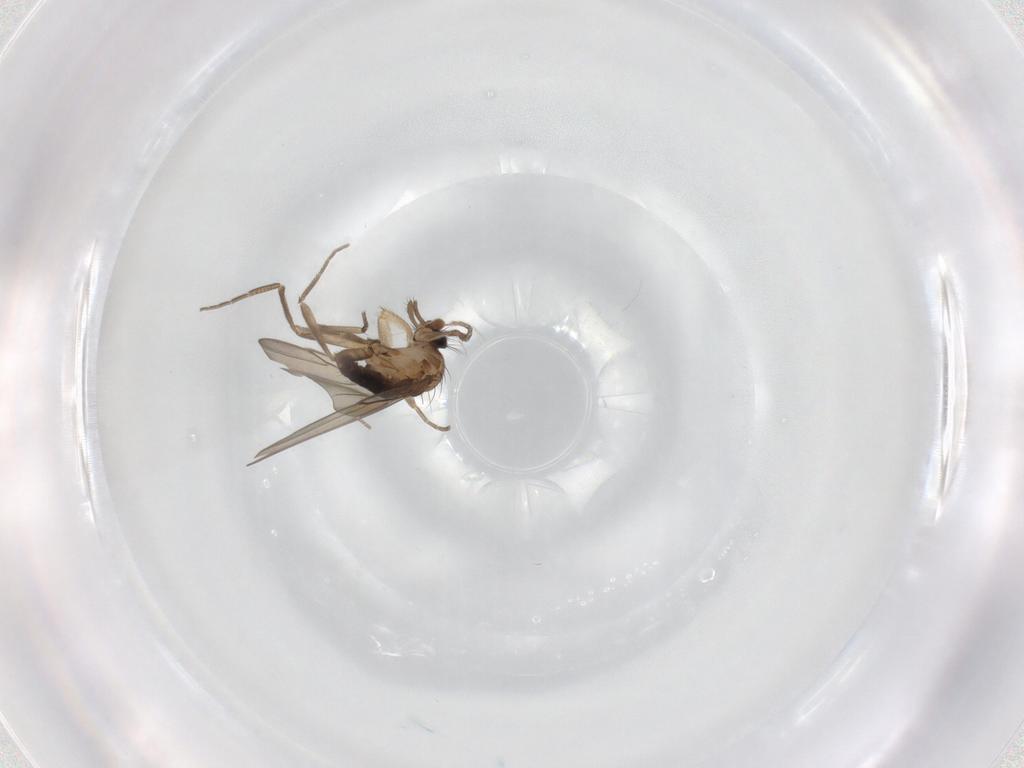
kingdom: Animalia
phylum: Arthropoda
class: Insecta
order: Diptera
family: Phoridae
